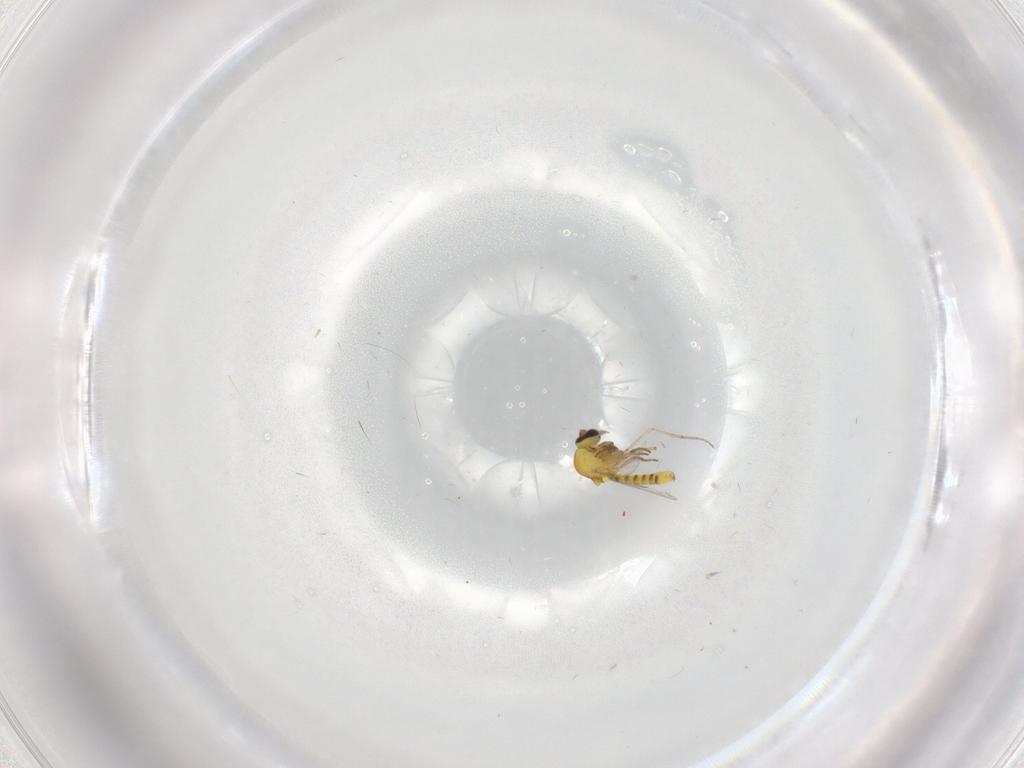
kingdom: Animalia
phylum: Arthropoda
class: Insecta
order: Diptera
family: Ceratopogonidae
